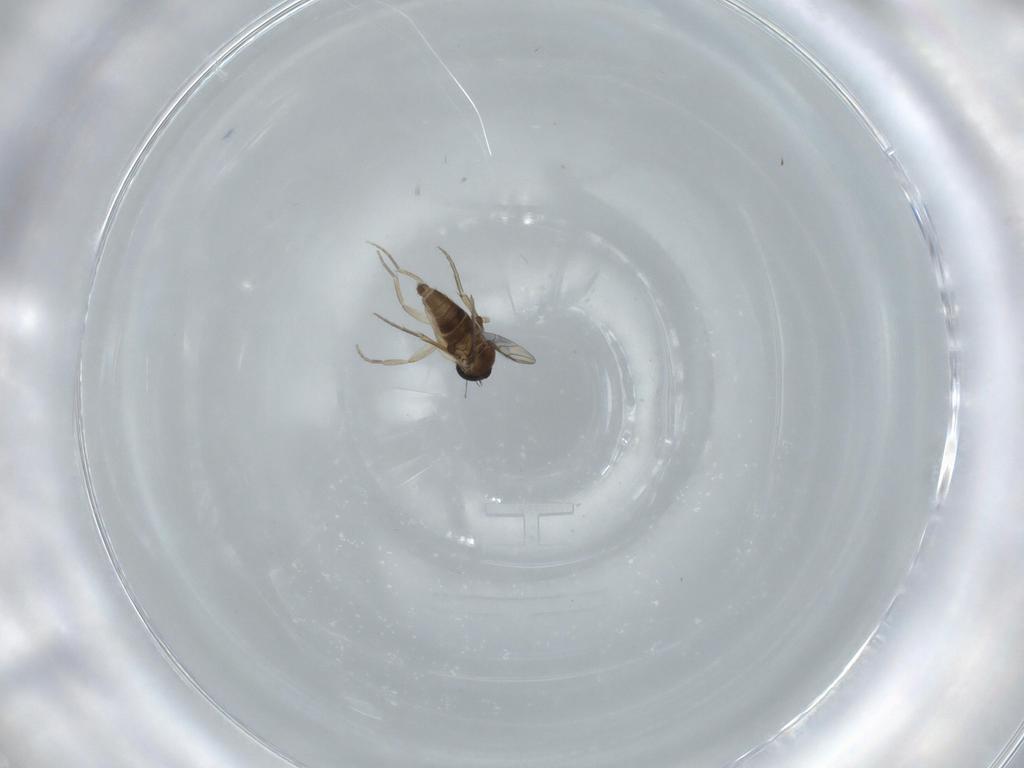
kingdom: Animalia
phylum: Arthropoda
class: Insecta
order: Diptera
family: Phoridae
